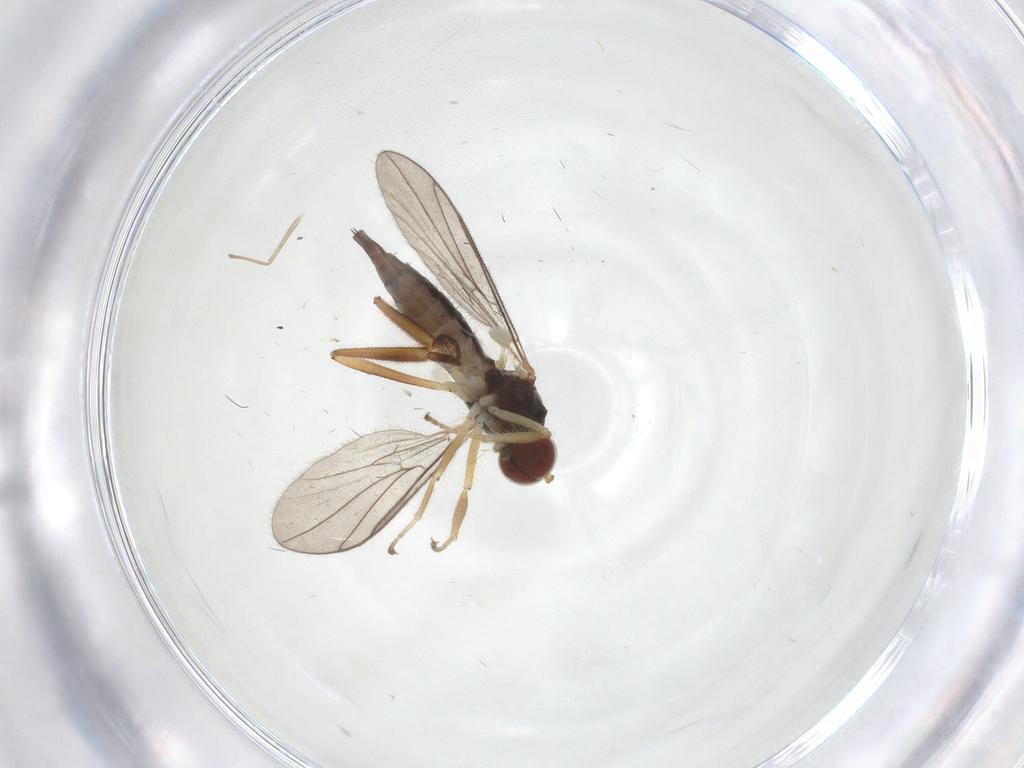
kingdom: Animalia
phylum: Arthropoda
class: Insecta
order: Diptera
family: Hybotidae
